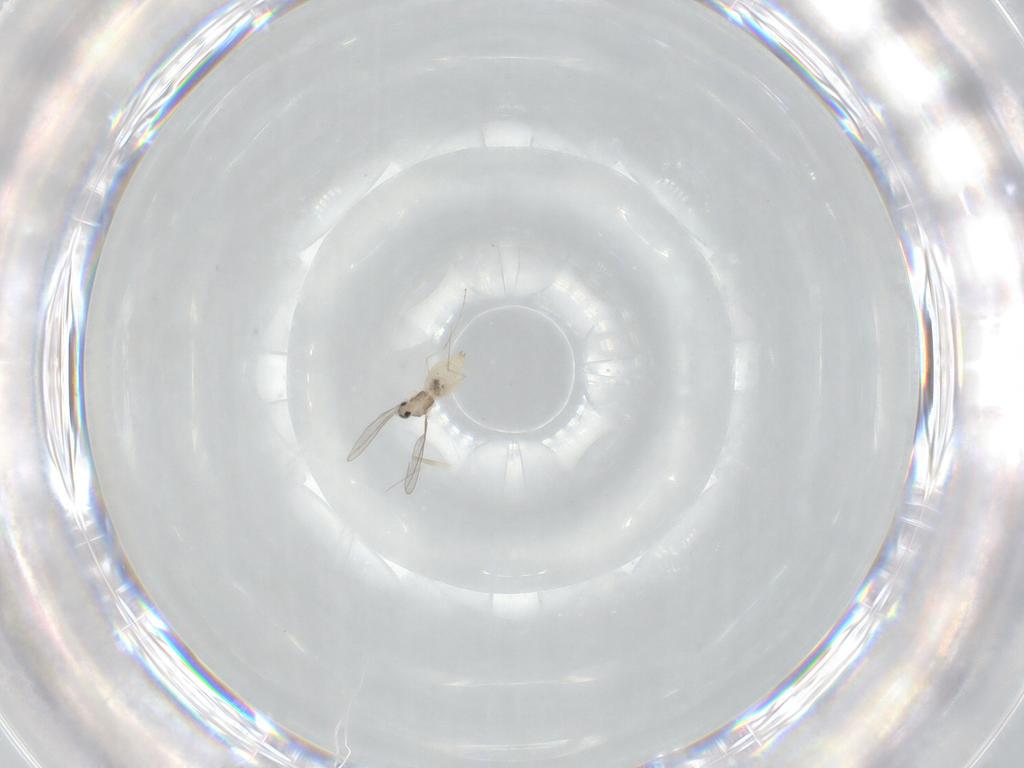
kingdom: Animalia
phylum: Arthropoda
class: Insecta
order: Diptera
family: Cecidomyiidae
